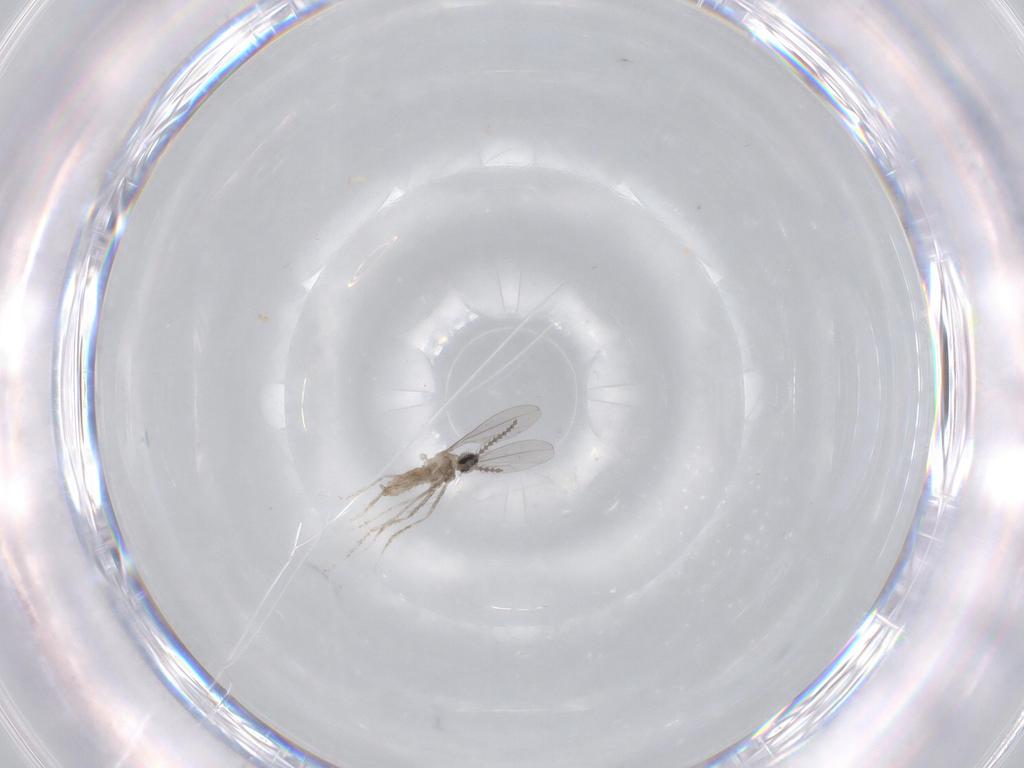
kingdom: Animalia
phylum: Arthropoda
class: Insecta
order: Diptera
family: Cecidomyiidae
